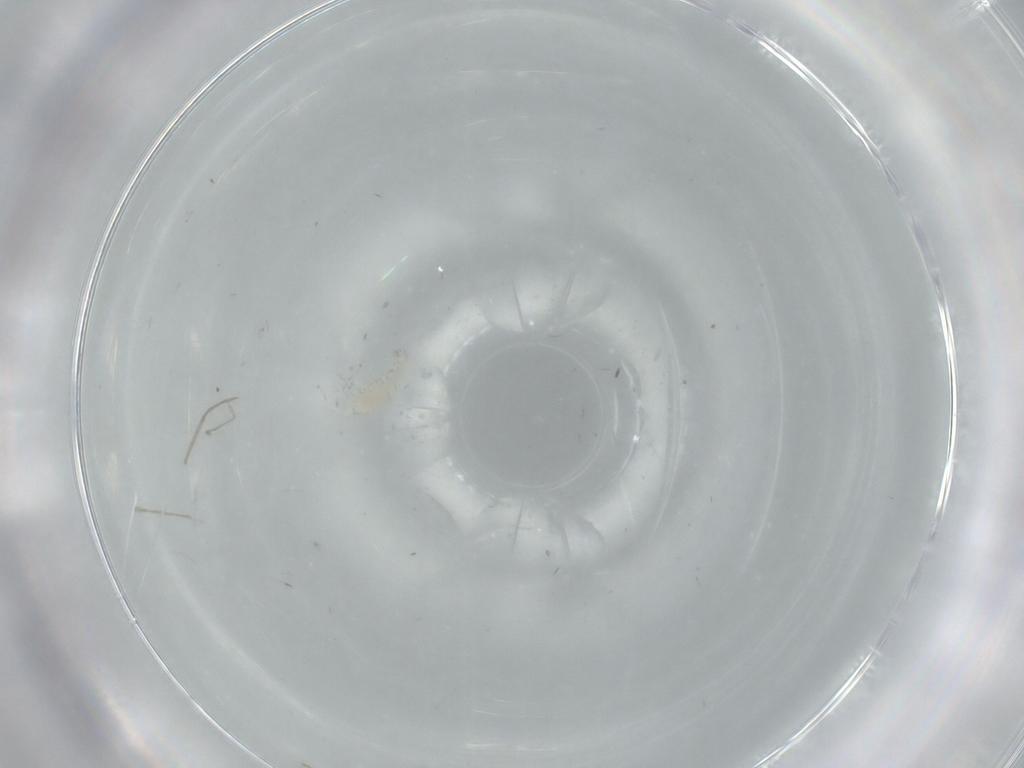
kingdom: Animalia
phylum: Arthropoda
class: Insecta
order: Diptera
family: Cecidomyiidae
